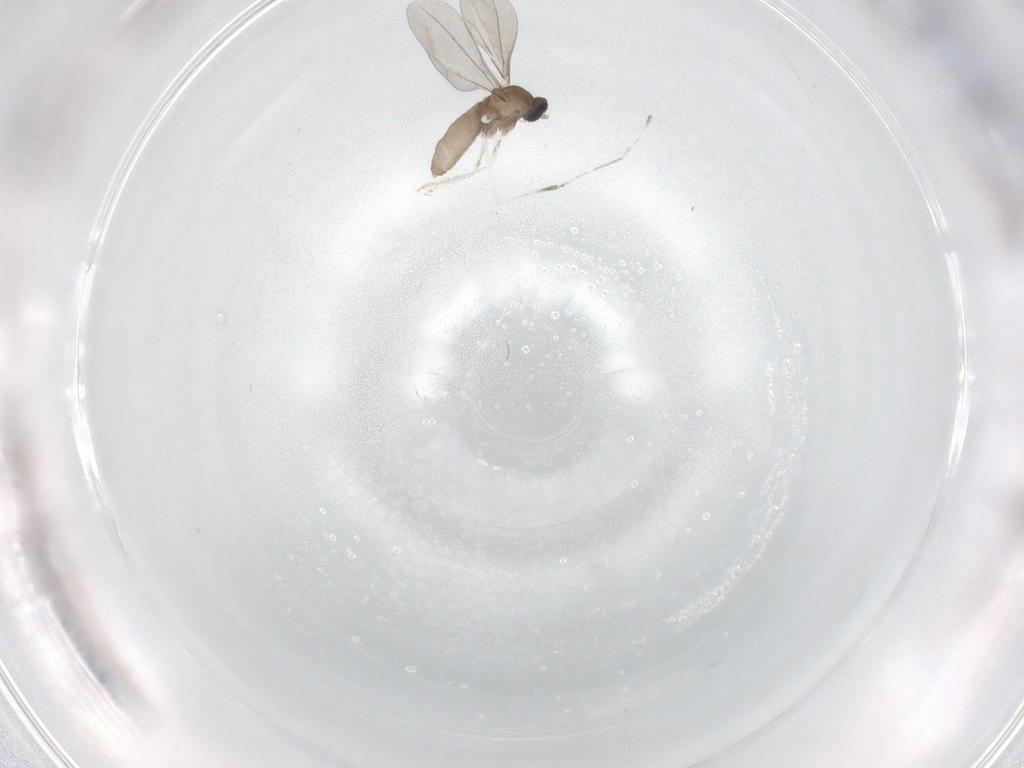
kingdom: Animalia
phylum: Arthropoda
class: Insecta
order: Diptera
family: Cecidomyiidae
